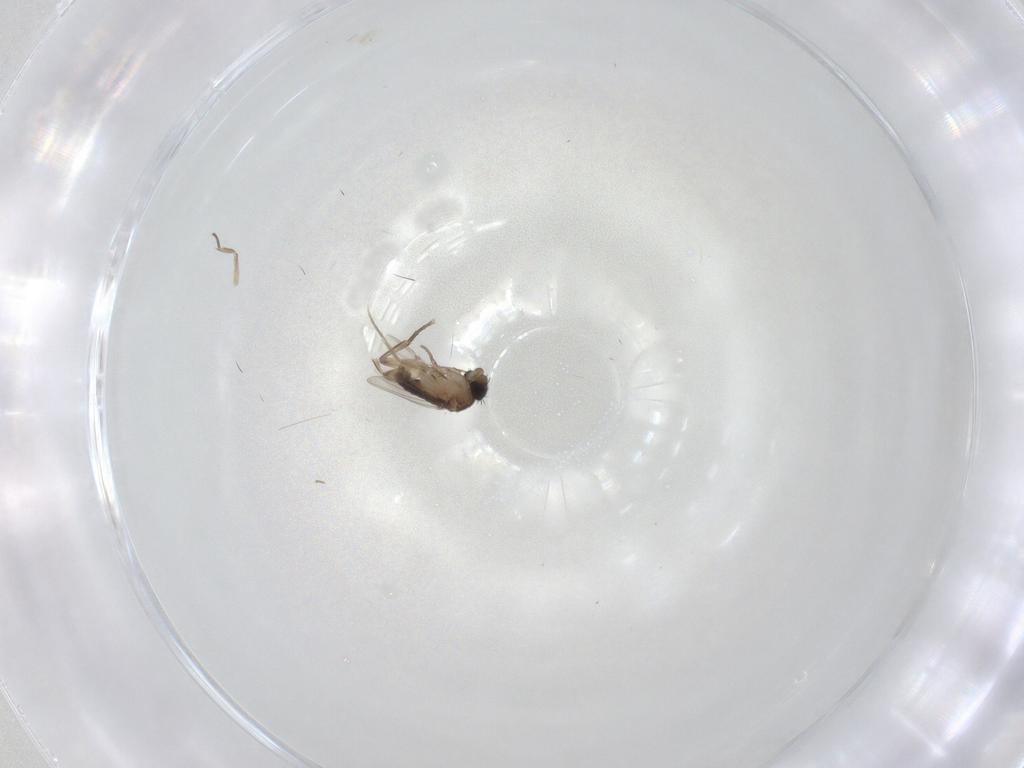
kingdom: Animalia
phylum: Arthropoda
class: Insecta
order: Diptera
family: Phoridae
